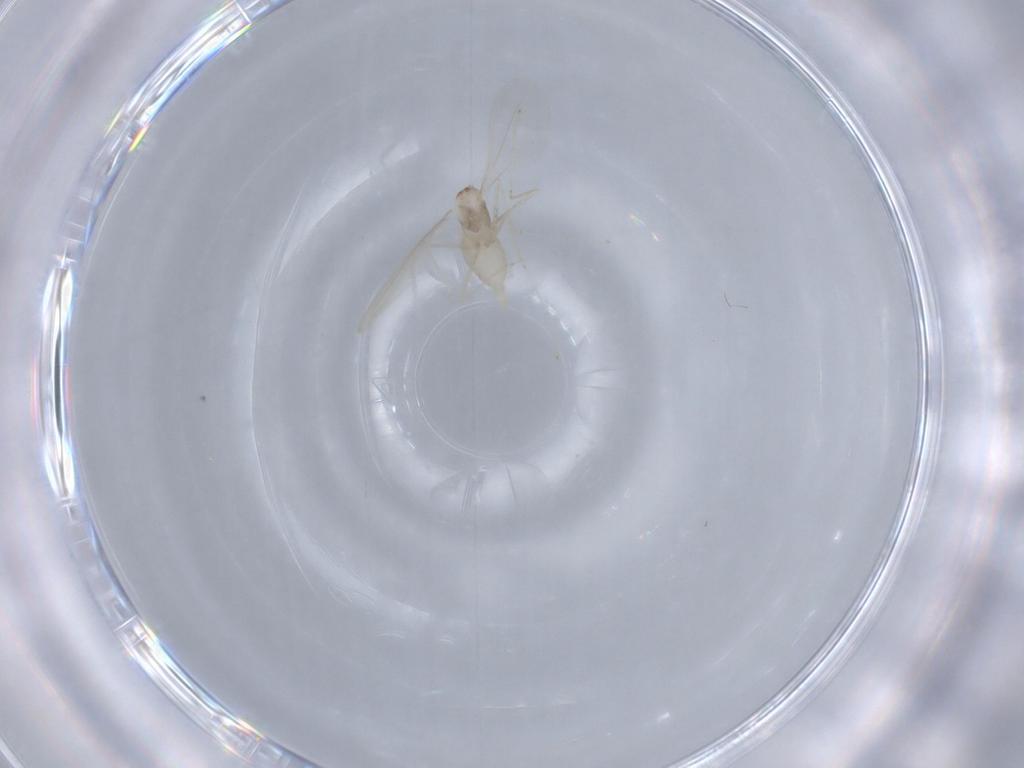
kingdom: Animalia
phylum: Arthropoda
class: Insecta
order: Diptera
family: Cecidomyiidae
